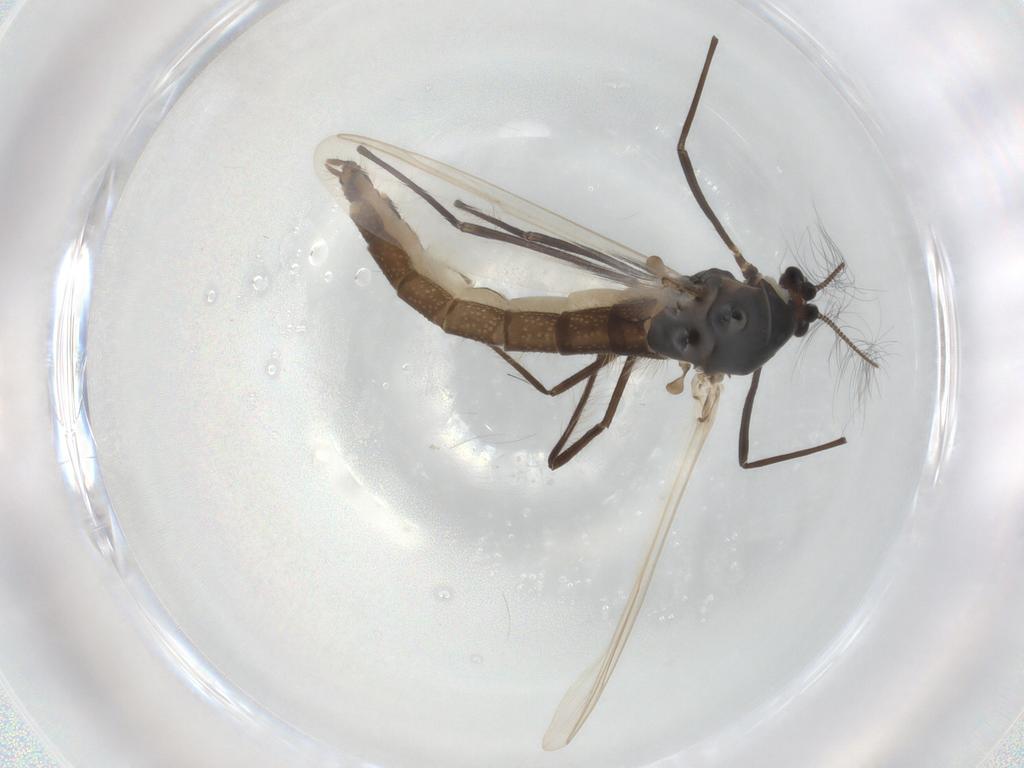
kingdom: Animalia
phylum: Arthropoda
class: Insecta
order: Diptera
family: Chironomidae
